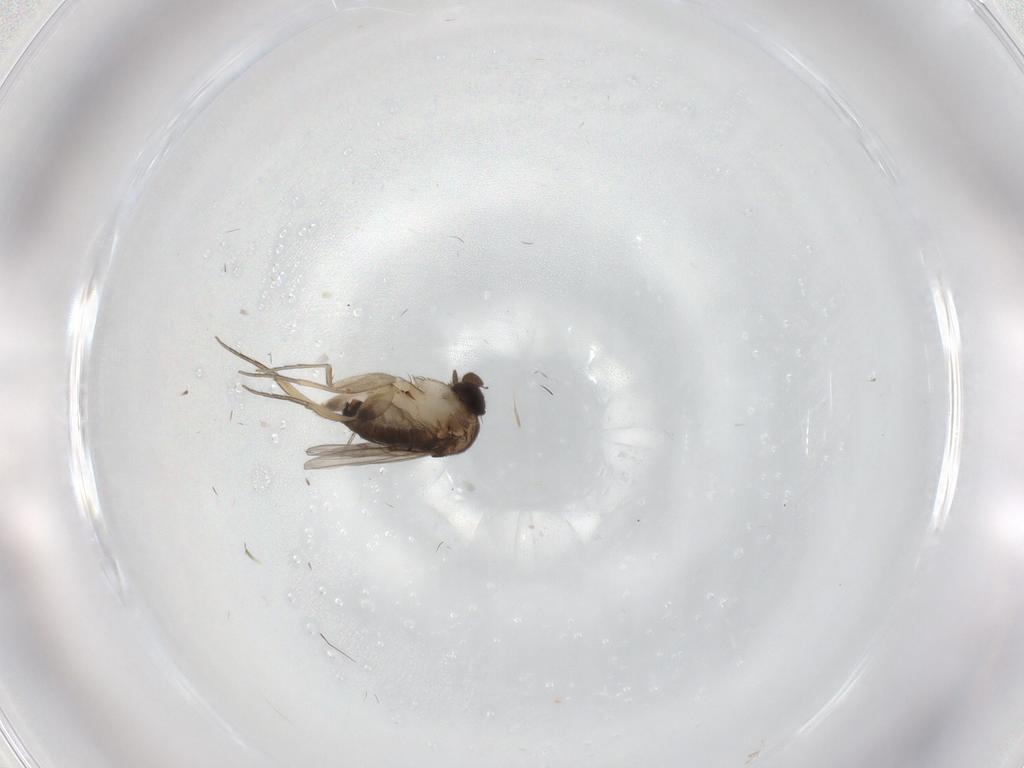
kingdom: Animalia
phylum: Arthropoda
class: Insecta
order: Diptera
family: Phoridae
